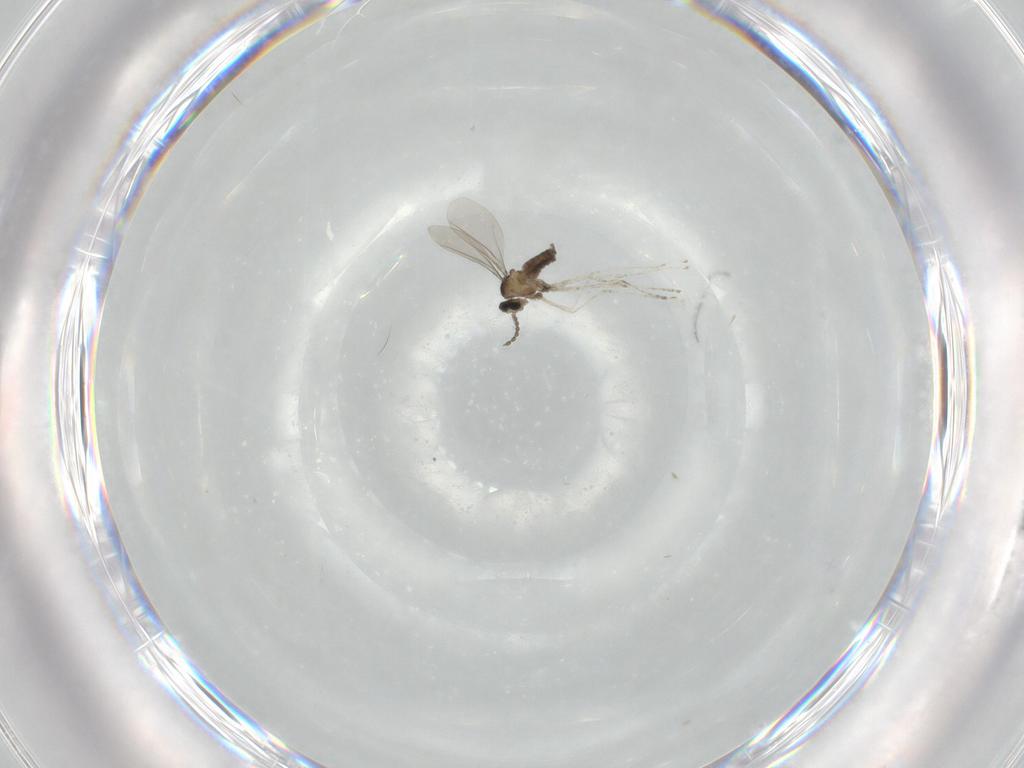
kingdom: Animalia
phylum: Arthropoda
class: Insecta
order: Diptera
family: Cecidomyiidae
